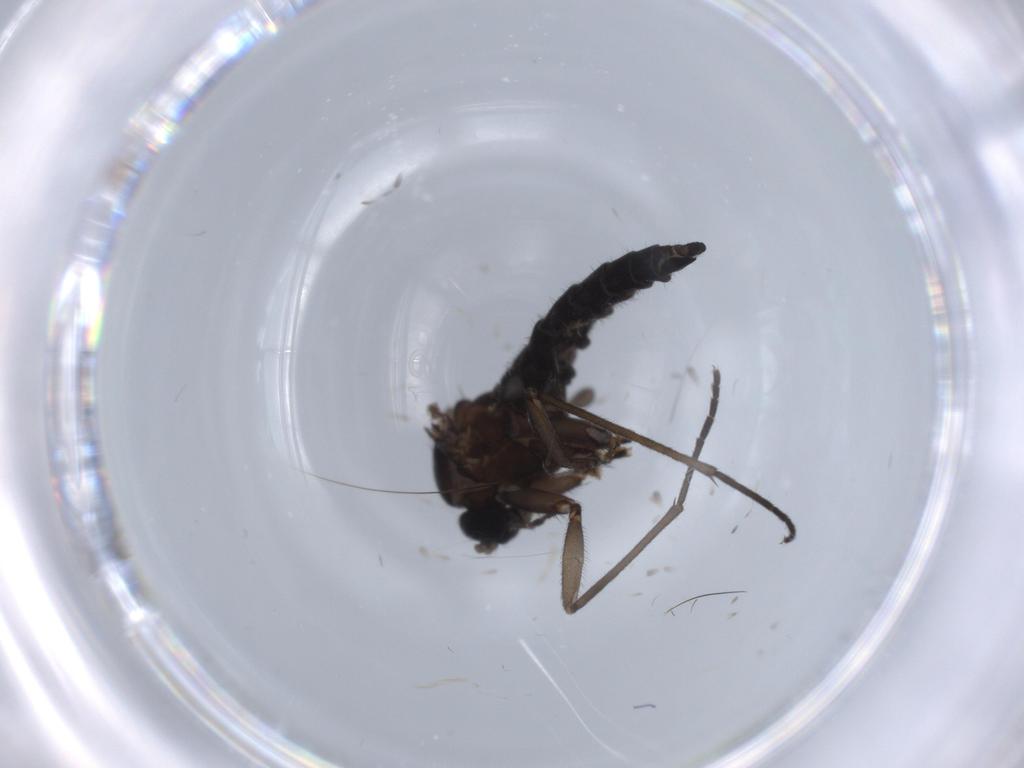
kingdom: Animalia
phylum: Arthropoda
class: Insecta
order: Diptera
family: Sciaridae
